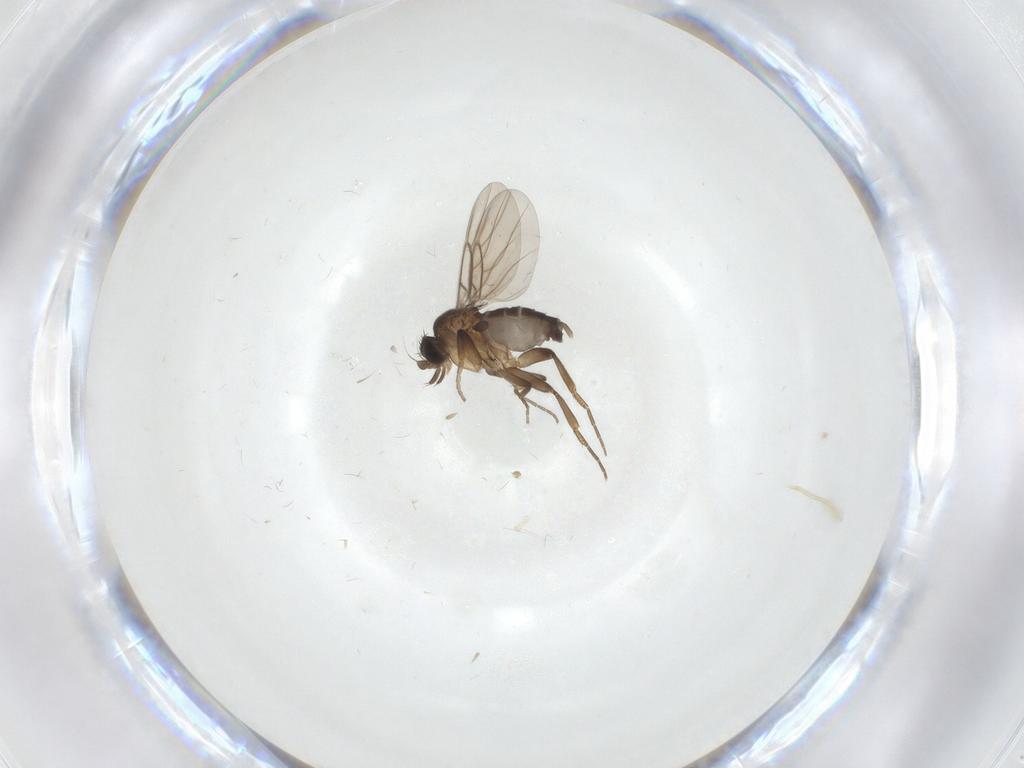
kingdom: Animalia
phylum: Arthropoda
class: Insecta
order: Diptera
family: Phoridae
